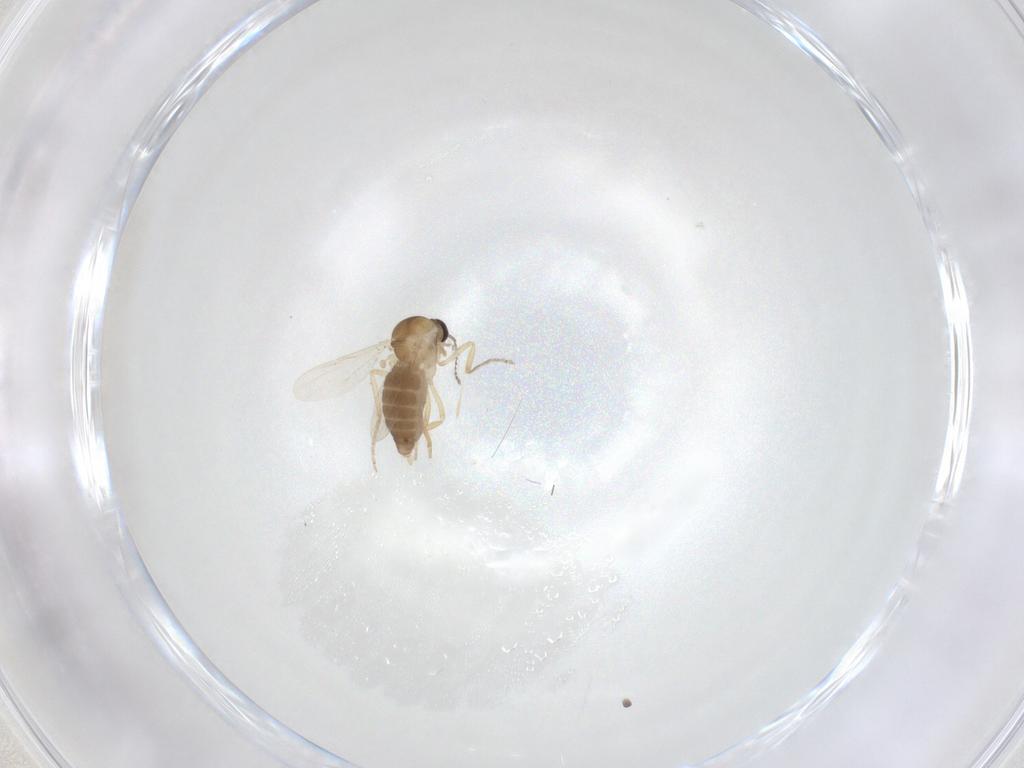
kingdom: Animalia
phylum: Arthropoda
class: Insecta
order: Diptera
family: Ceratopogonidae
